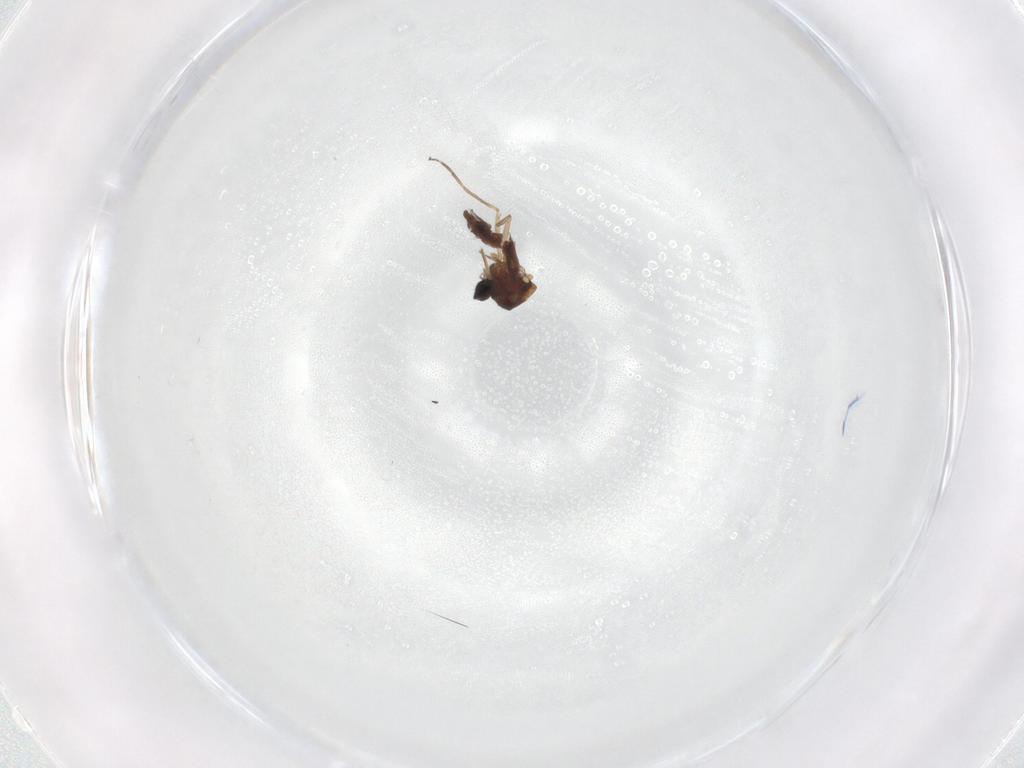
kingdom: Animalia
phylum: Arthropoda
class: Insecta
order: Diptera
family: Ceratopogonidae
